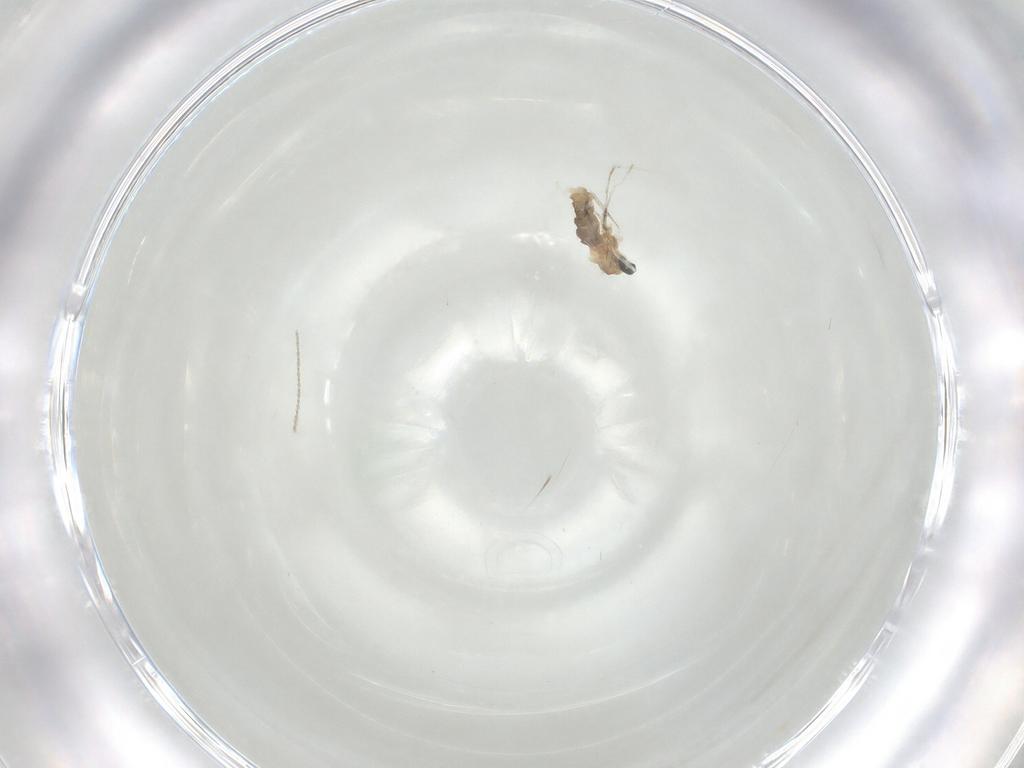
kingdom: Animalia
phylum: Arthropoda
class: Insecta
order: Diptera
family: Cecidomyiidae
